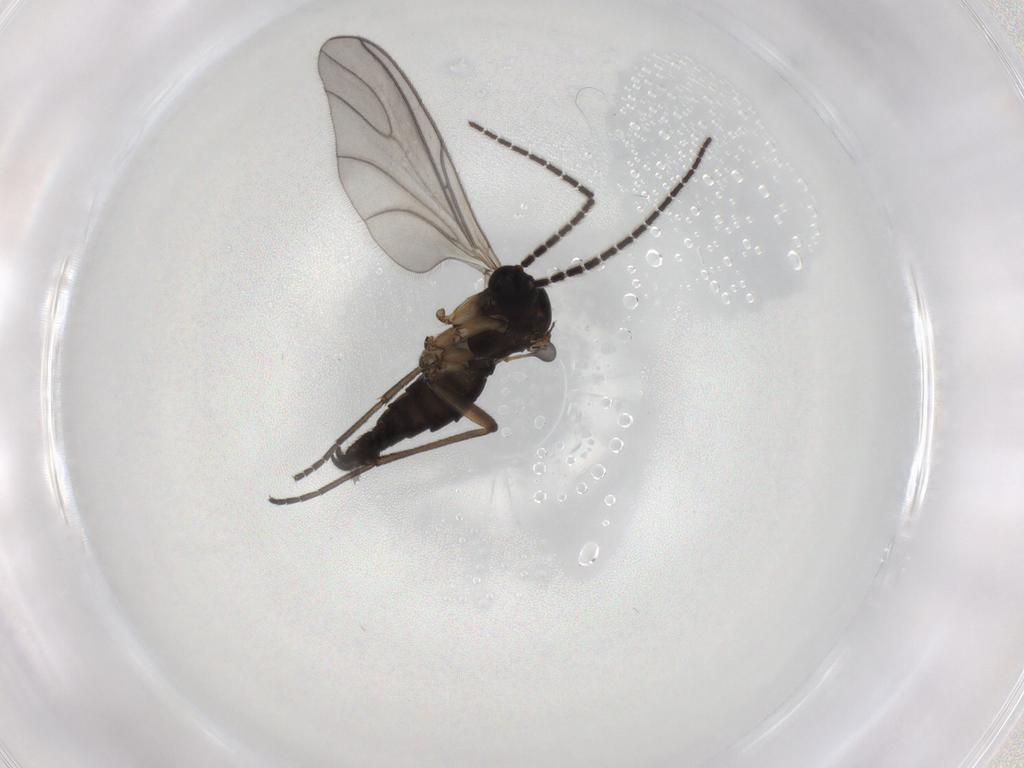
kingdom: Animalia
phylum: Arthropoda
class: Insecta
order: Diptera
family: Sciaridae
